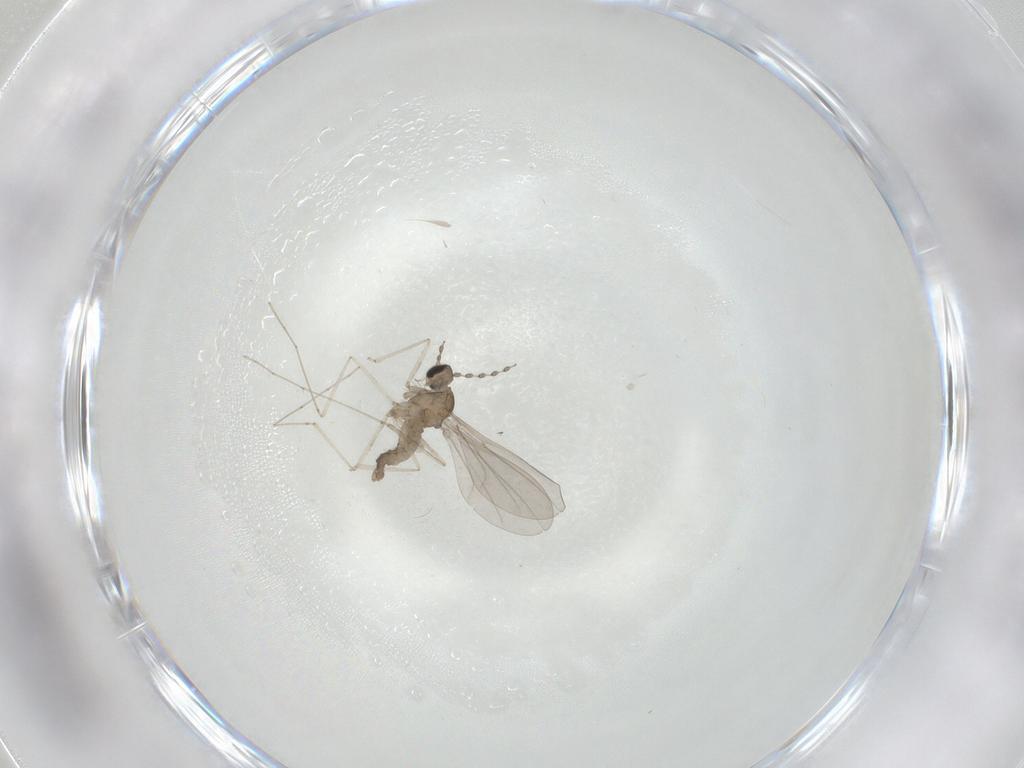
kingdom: Animalia
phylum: Arthropoda
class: Insecta
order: Diptera
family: Cecidomyiidae
